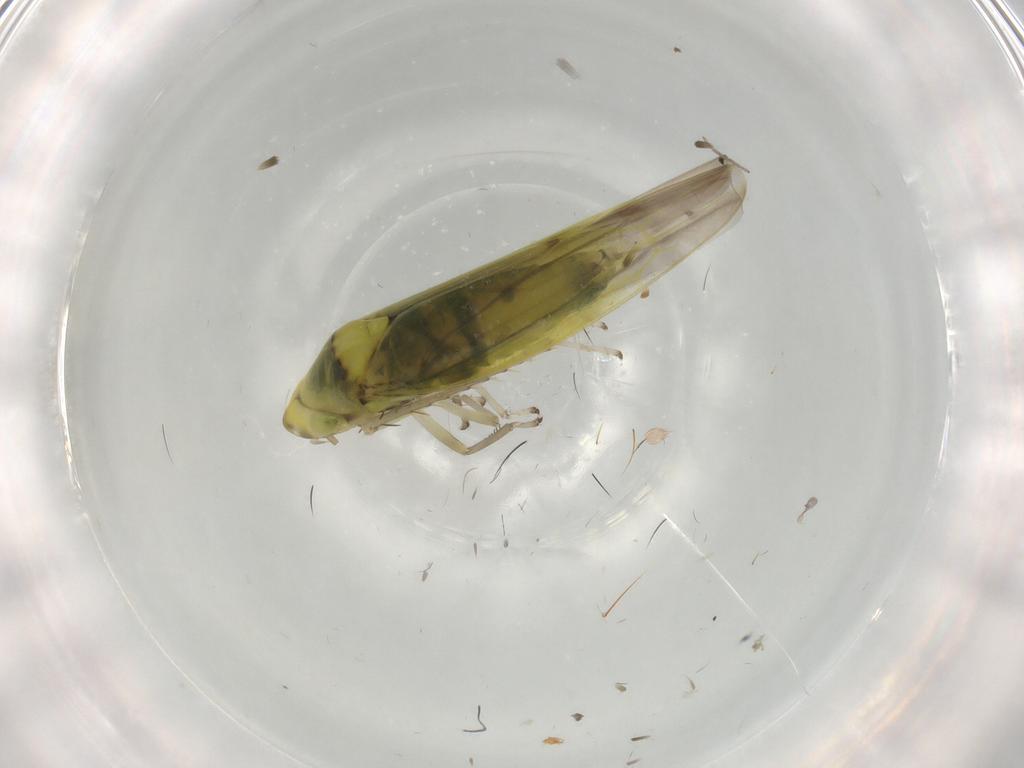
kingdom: Animalia
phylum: Arthropoda
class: Insecta
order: Hemiptera
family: Cicadellidae
